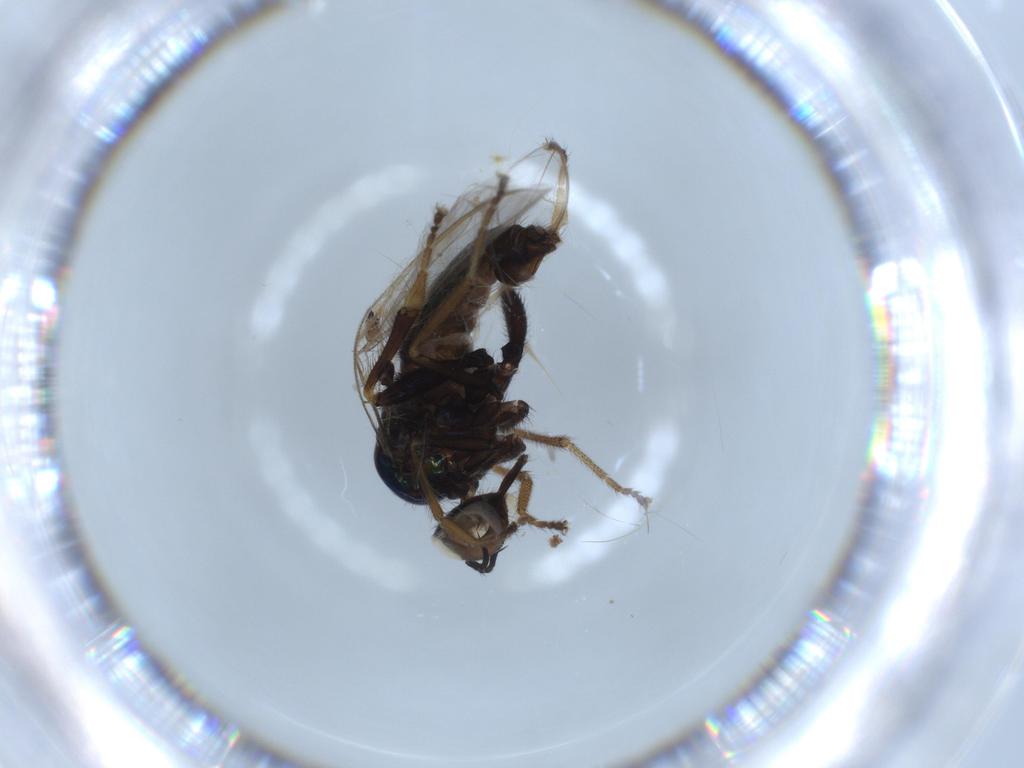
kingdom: Animalia
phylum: Arthropoda
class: Insecta
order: Diptera
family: Empididae
